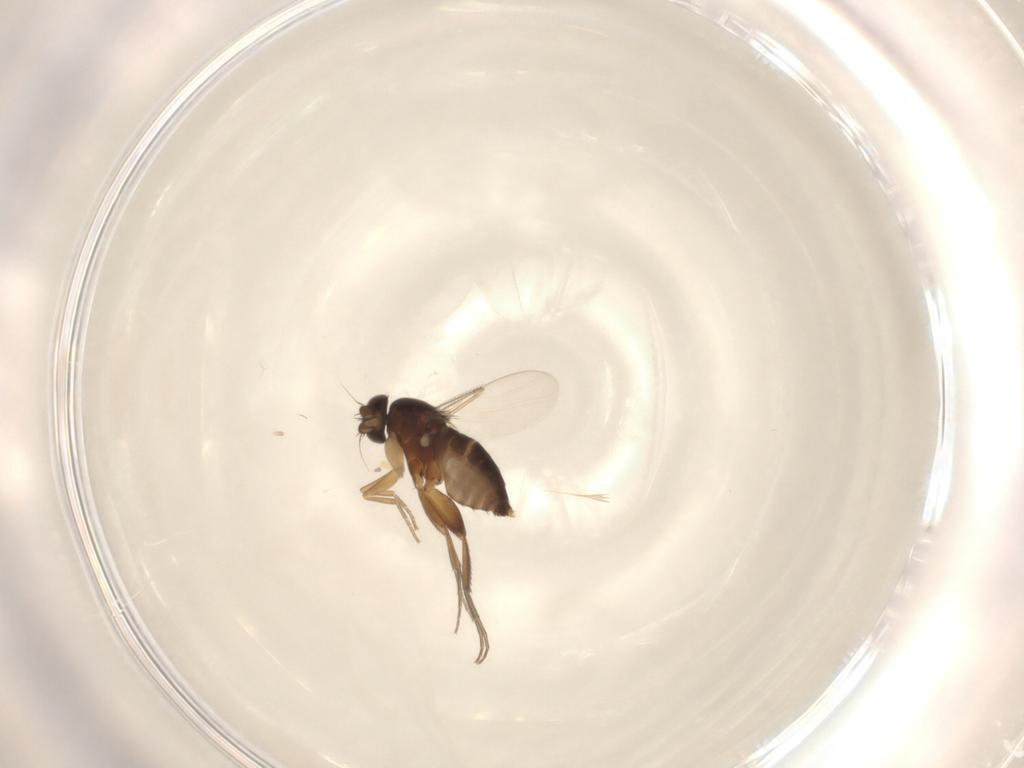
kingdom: Animalia
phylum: Arthropoda
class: Insecta
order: Diptera
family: Phoridae
